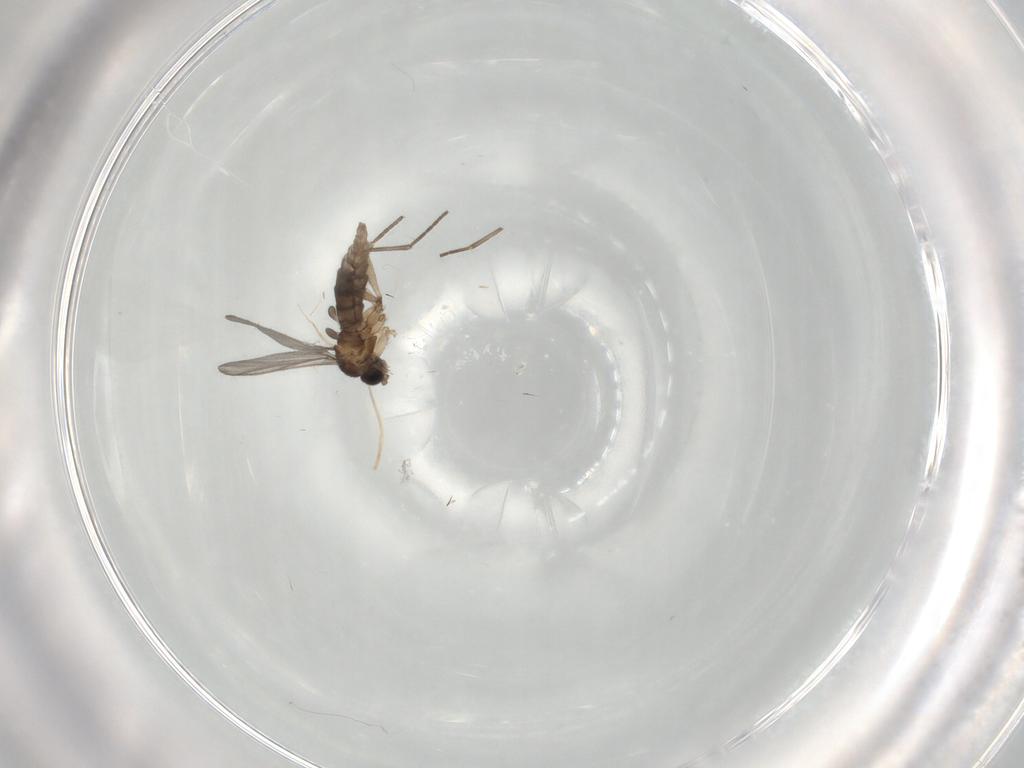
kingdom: Animalia
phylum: Arthropoda
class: Insecta
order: Diptera
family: Dolichopodidae
